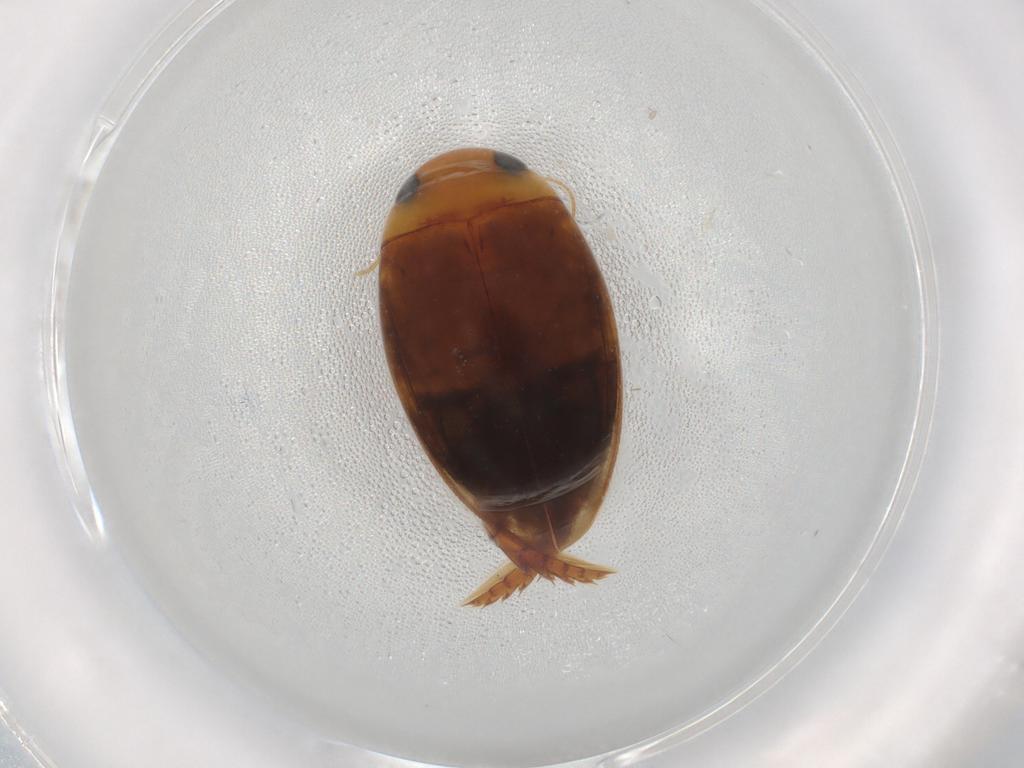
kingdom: Animalia
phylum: Arthropoda
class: Insecta
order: Coleoptera
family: Dytiscidae
